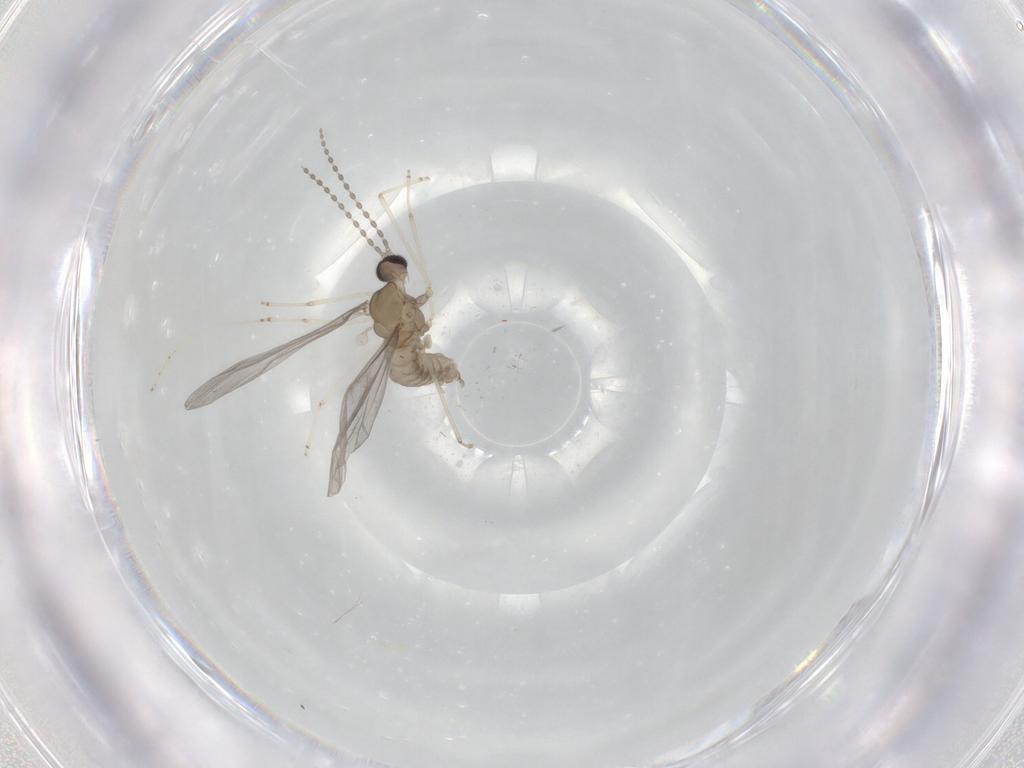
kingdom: Animalia
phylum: Arthropoda
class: Insecta
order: Diptera
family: Cecidomyiidae
